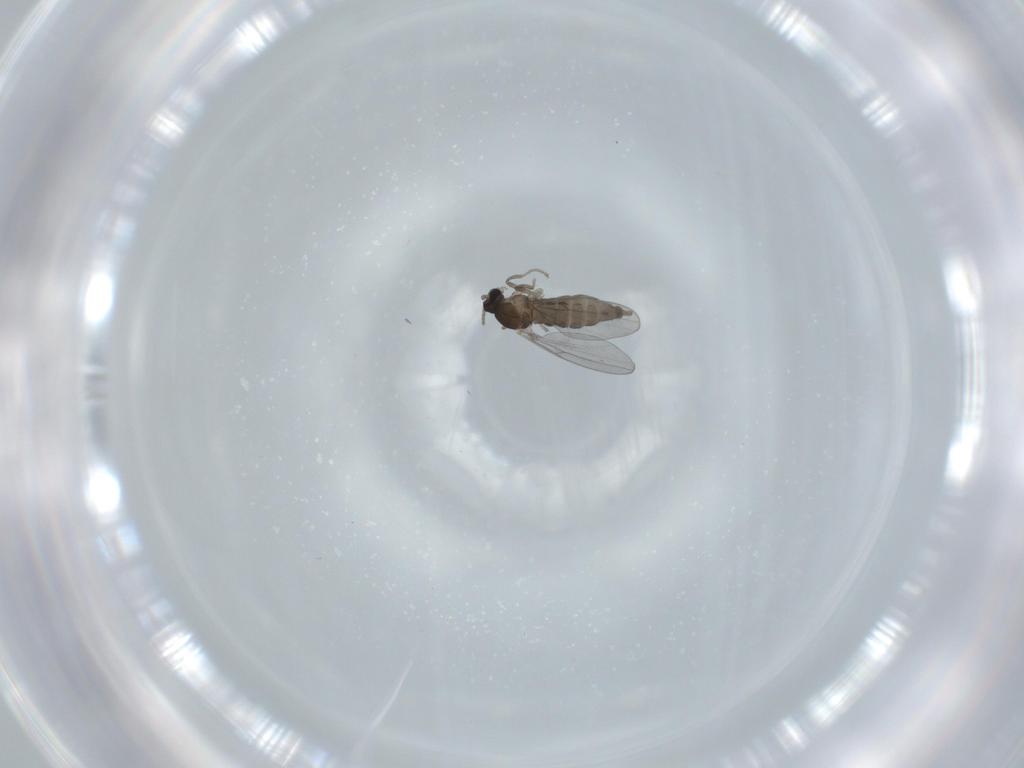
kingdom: Animalia
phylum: Arthropoda
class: Insecta
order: Diptera
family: Cecidomyiidae
